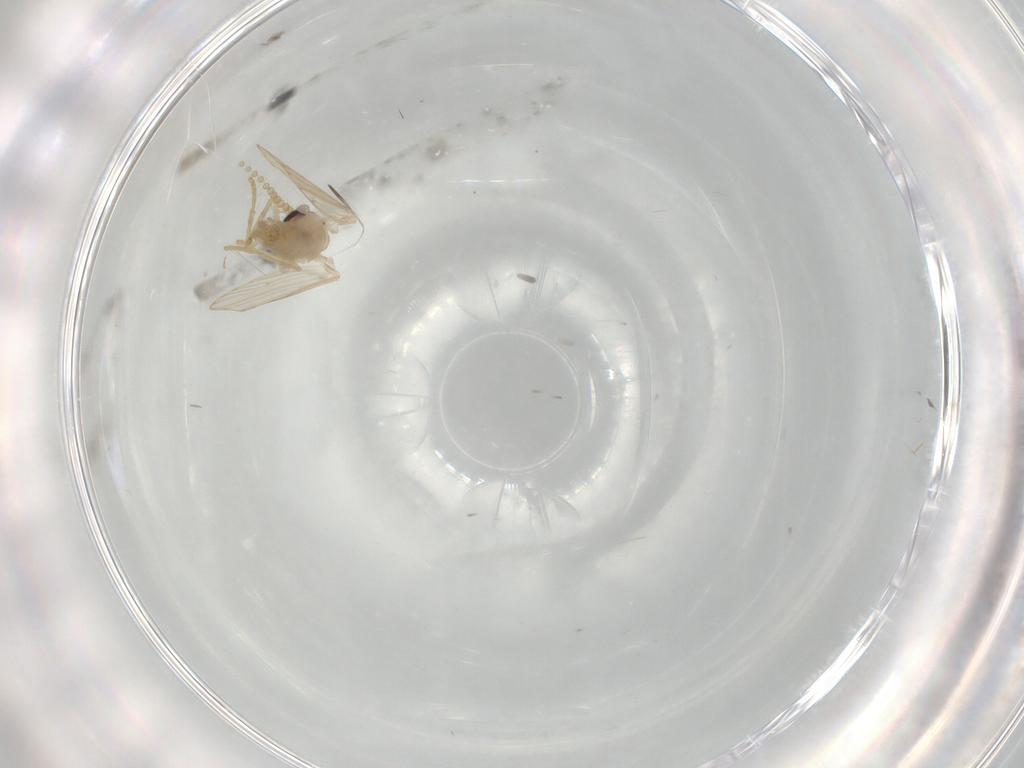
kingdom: Animalia
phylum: Arthropoda
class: Insecta
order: Diptera
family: Psychodidae
